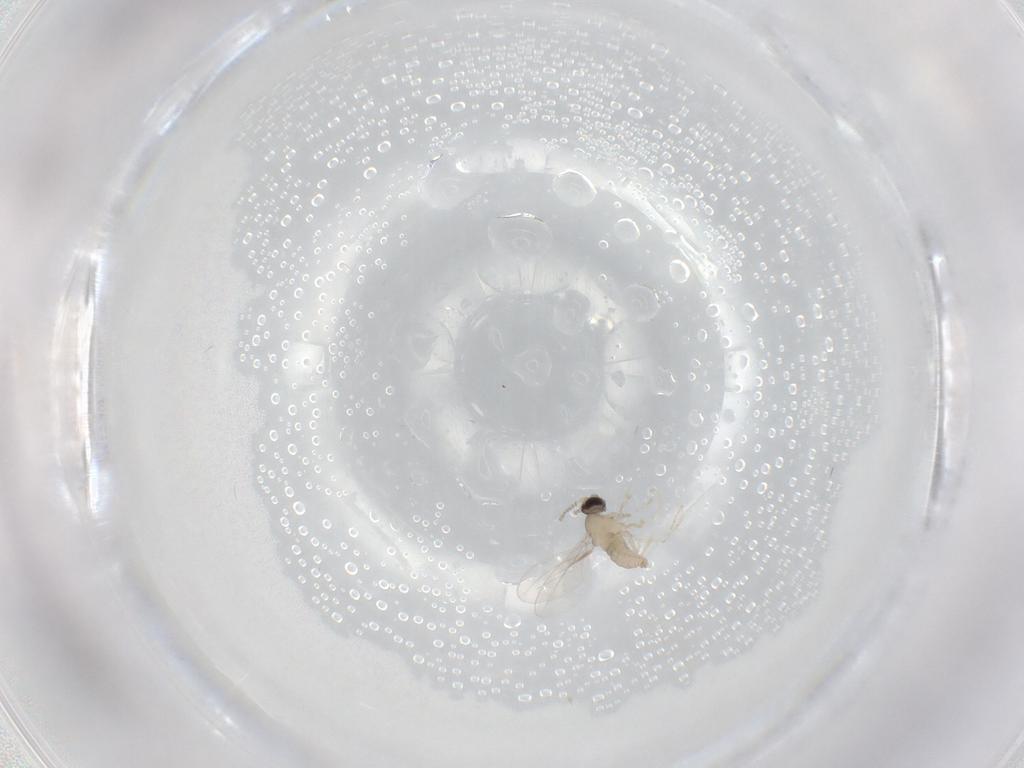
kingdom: Animalia
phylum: Arthropoda
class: Insecta
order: Diptera
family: Cecidomyiidae
